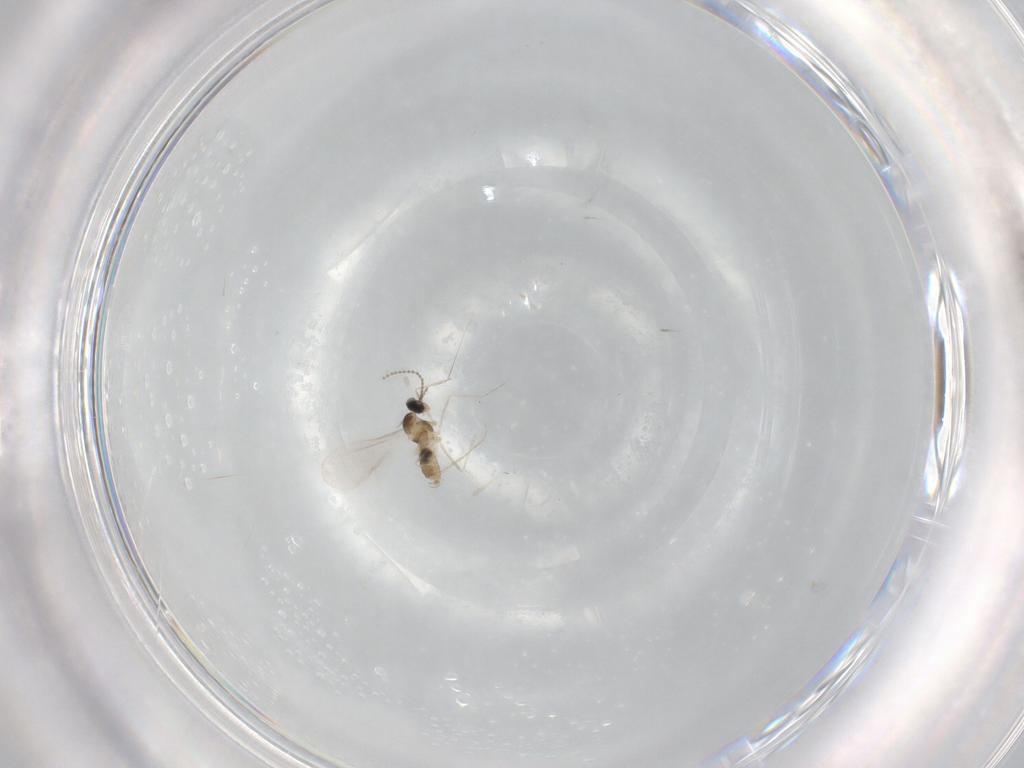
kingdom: Animalia
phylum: Arthropoda
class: Insecta
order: Diptera
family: Cecidomyiidae
